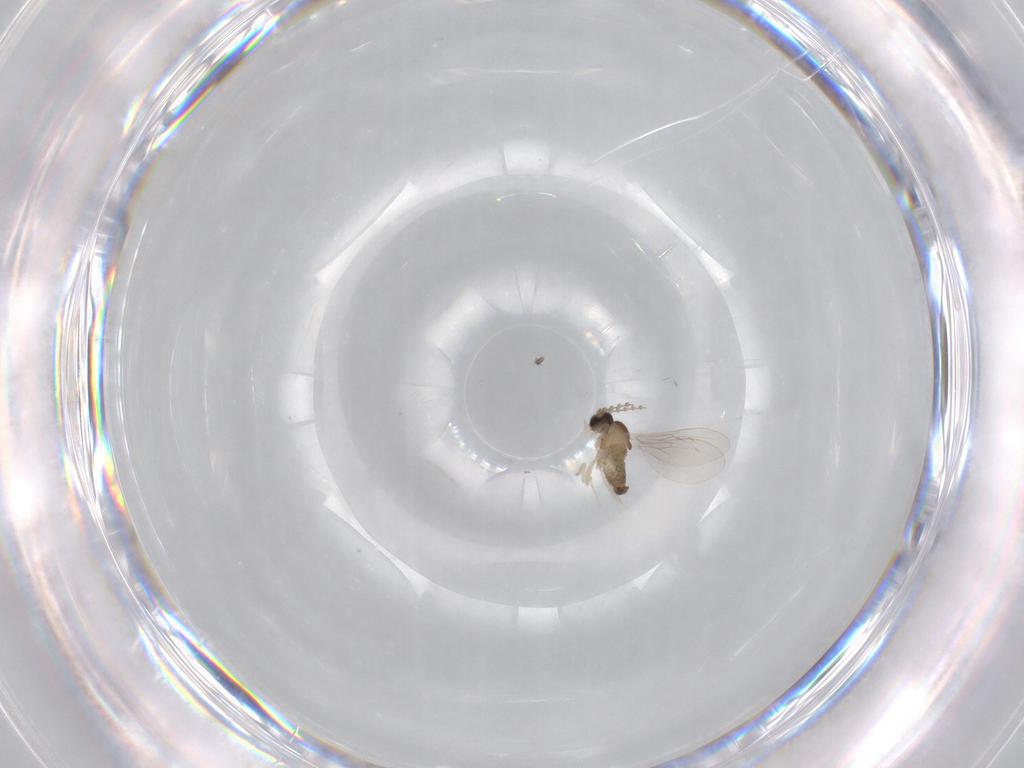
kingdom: Animalia
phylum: Arthropoda
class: Insecta
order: Diptera
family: Cecidomyiidae
